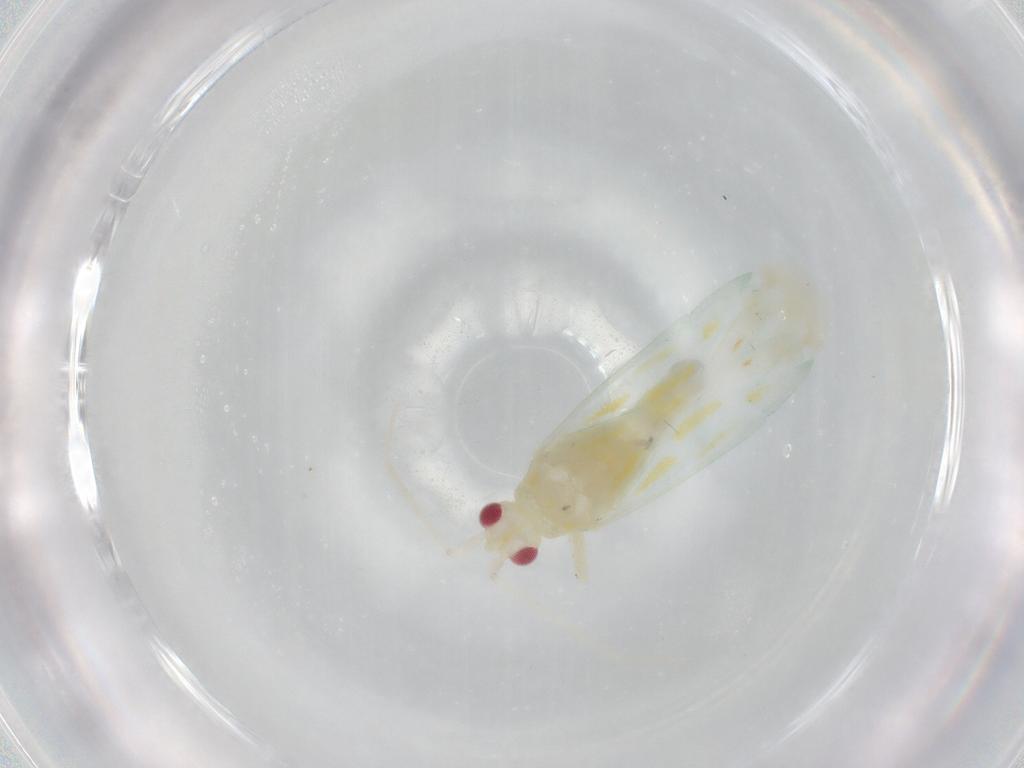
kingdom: Animalia
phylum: Arthropoda
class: Insecta
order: Hemiptera
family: Miridae
